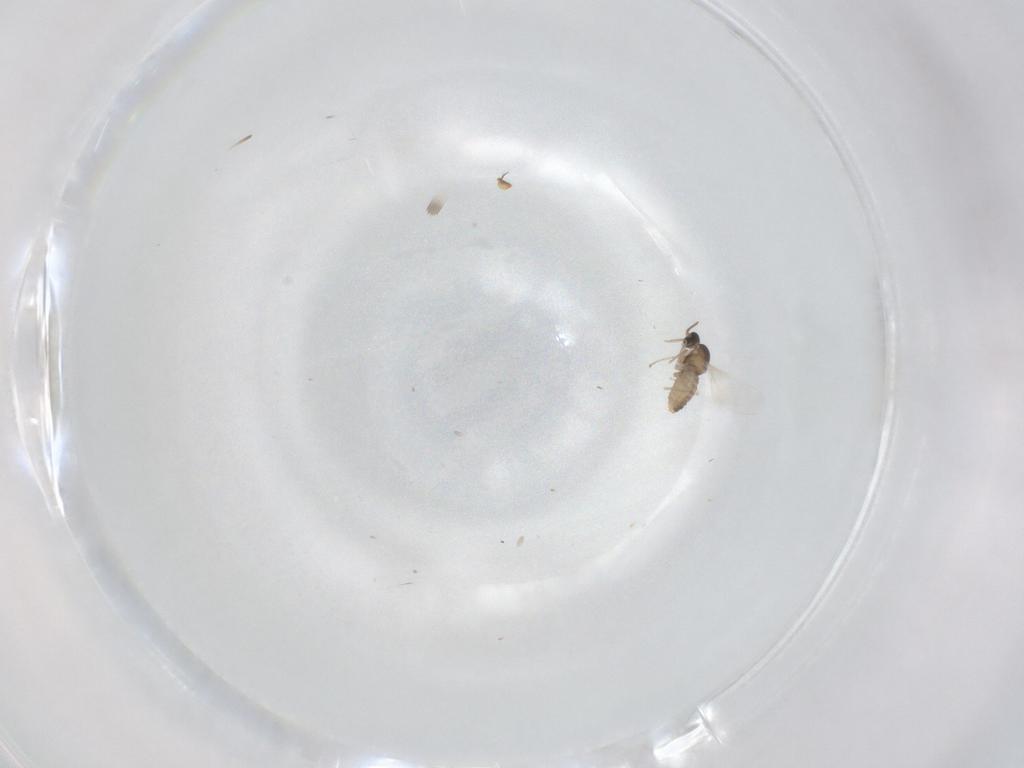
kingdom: Animalia
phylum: Arthropoda
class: Insecta
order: Diptera
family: Cecidomyiidae
